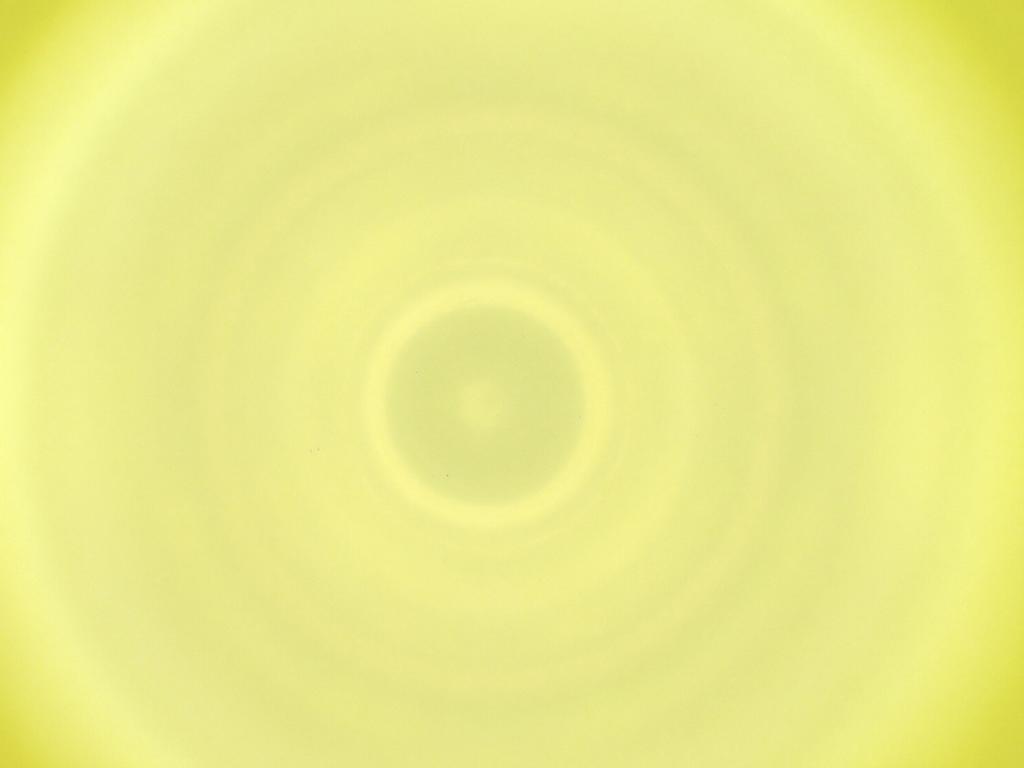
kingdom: Animalia
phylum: Arthropoda
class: Insecta
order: Diptera
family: Cecidomyiidae
